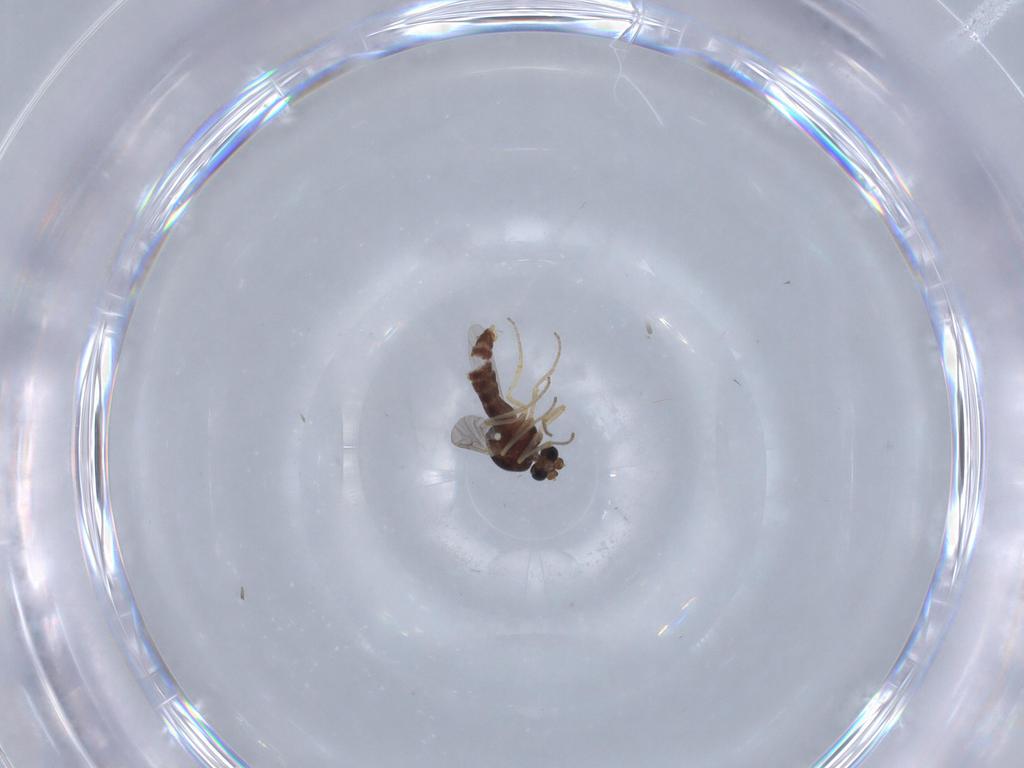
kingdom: Animalia
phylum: Arthropoda
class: Insecta
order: Diptera
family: Ceratopogonidae
